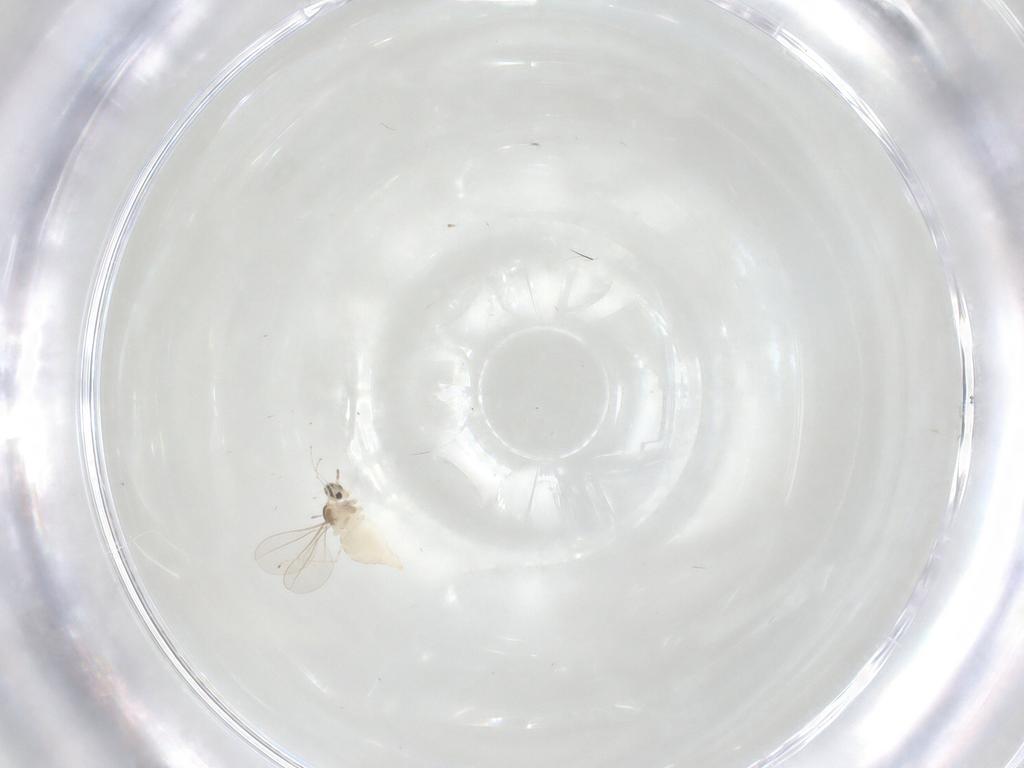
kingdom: Animalia
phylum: Arthropoda
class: Insecta
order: Diptera
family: Cecidomyiidae
